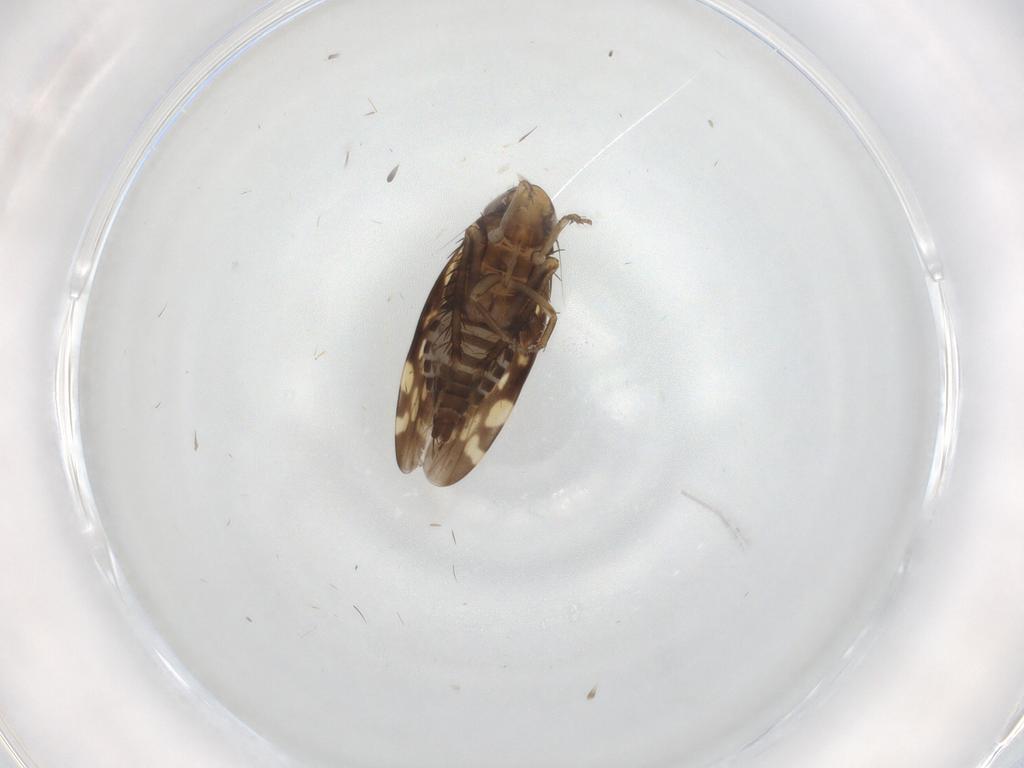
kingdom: Animalia
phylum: Arthropoda
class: Insecta
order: Hemiptera
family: Cicadellidae
